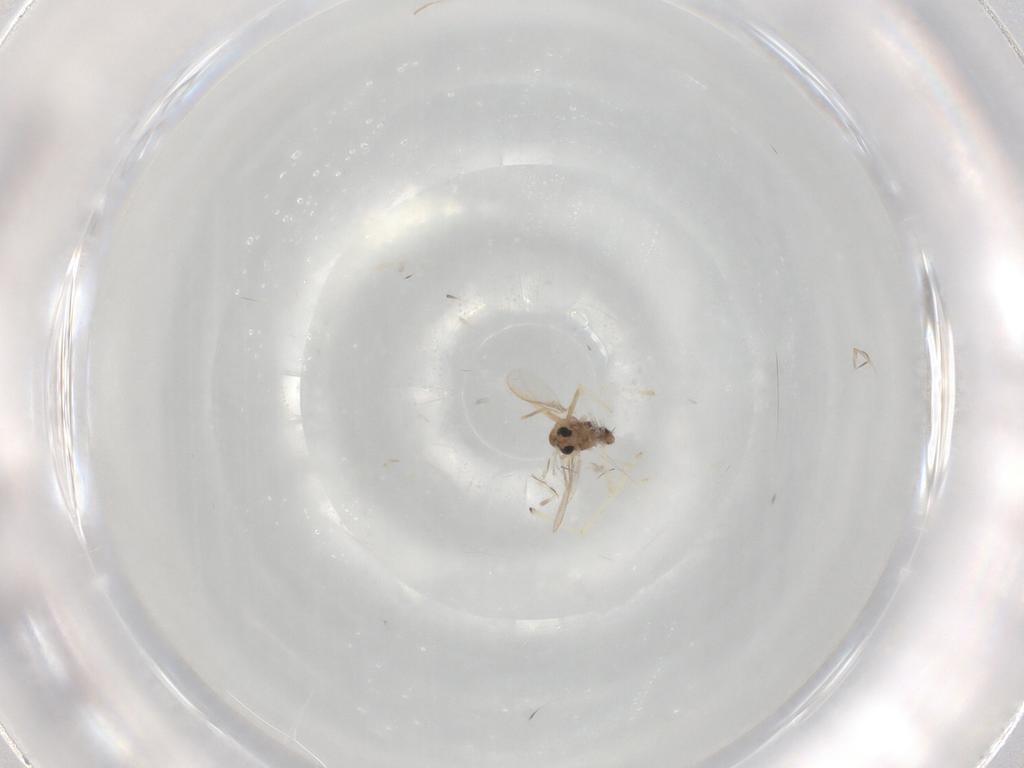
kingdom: Animalia
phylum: Arthropoda
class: Insecta
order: Diptera
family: Chironomidae
